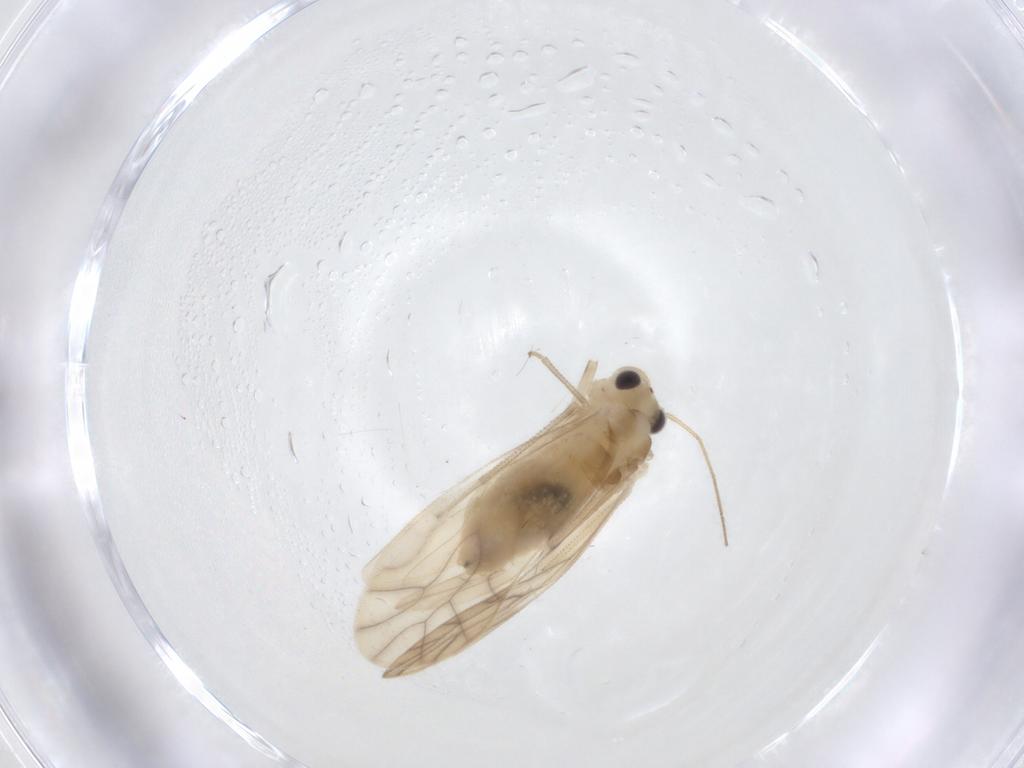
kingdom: Animalia
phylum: Arthropoda
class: Insecta
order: Psocodea
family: Caeciliusidae
